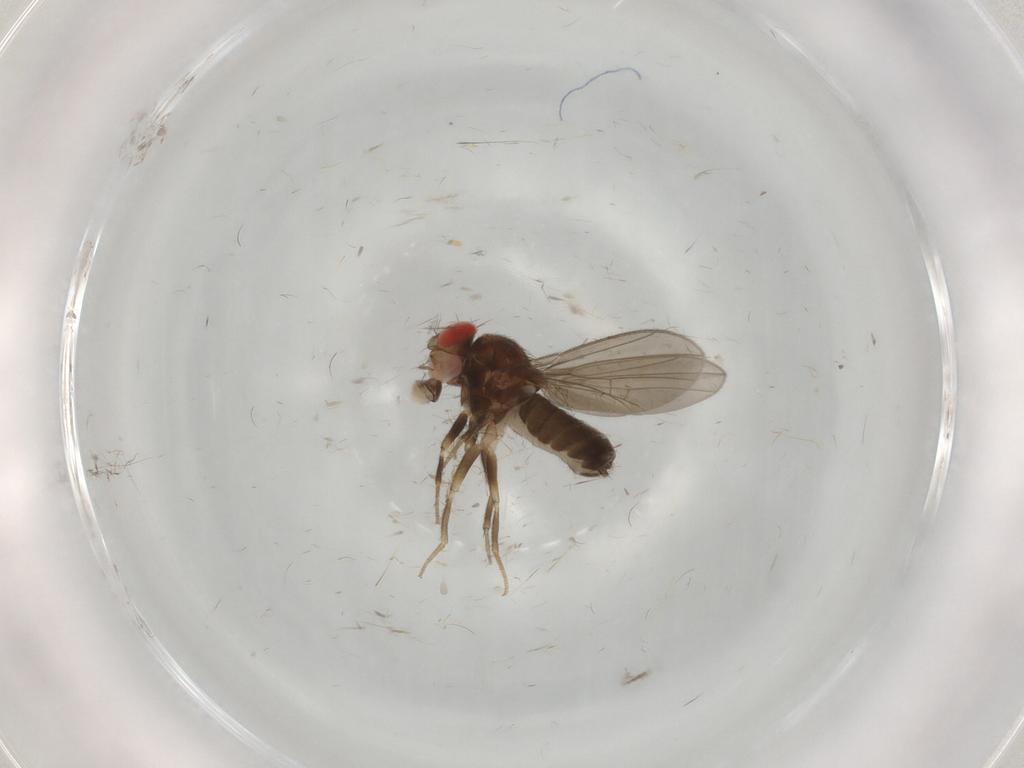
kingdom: Animalia
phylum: Arthropoda
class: Insecta
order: Diptera
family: Drosophilidae
